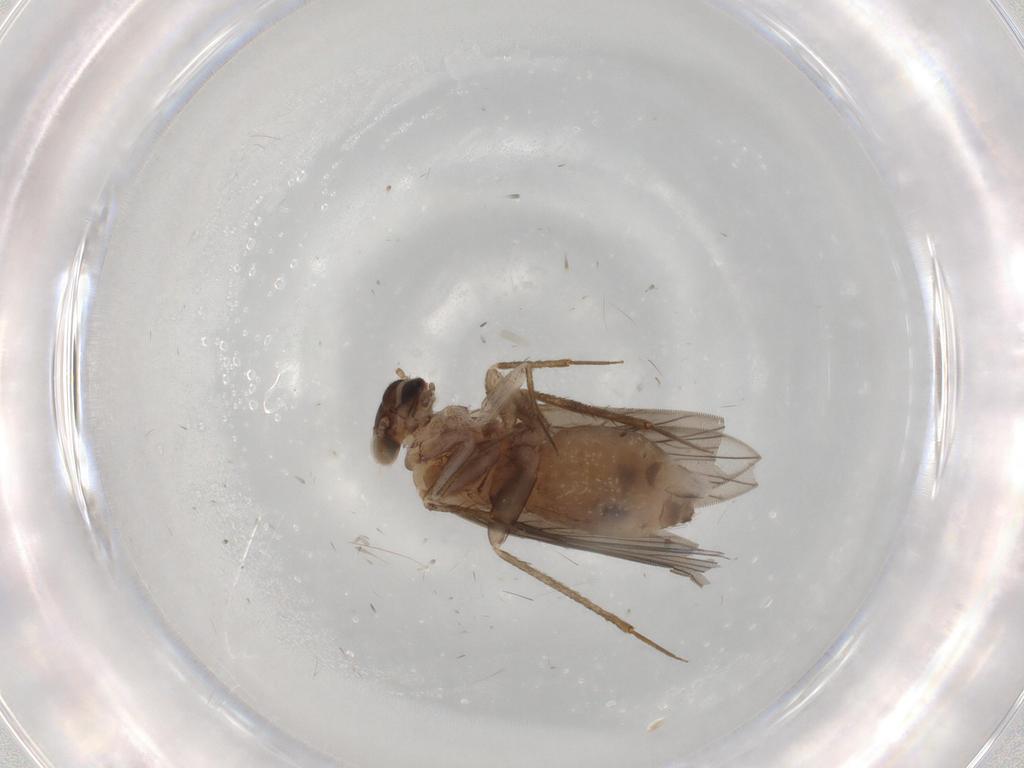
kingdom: Animalia
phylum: Arthropoda
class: Insecta
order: Psocodea
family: Lepidopsocidae
